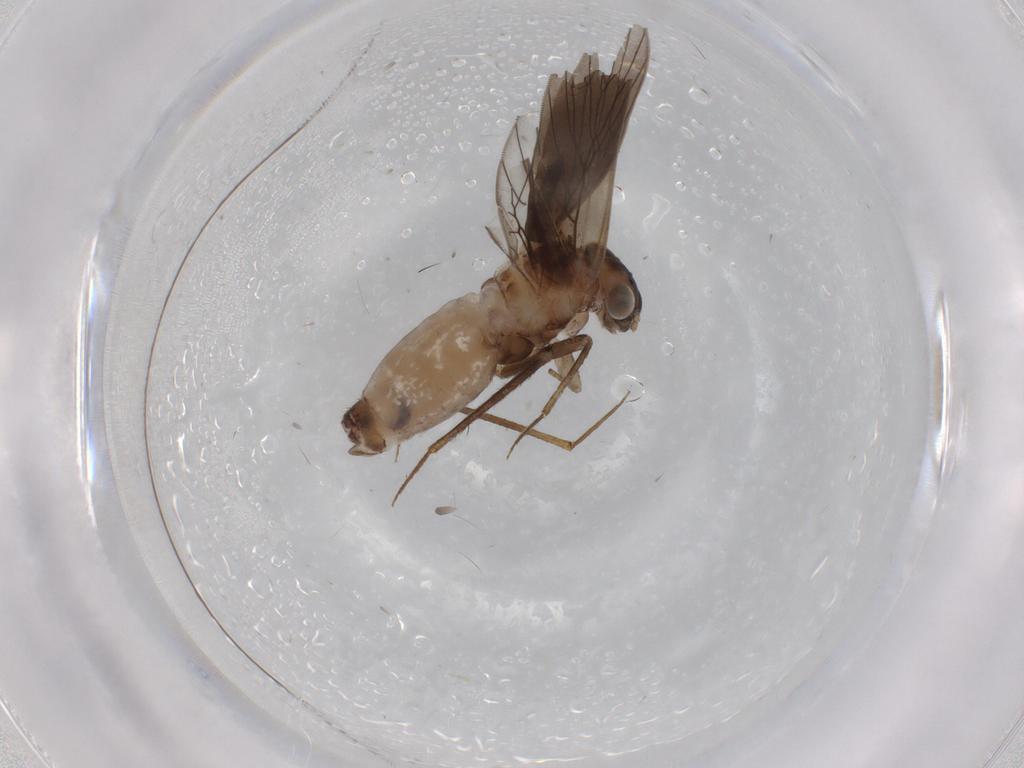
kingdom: Animalia
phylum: Arthropoda
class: Insecta
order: Psocodea
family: Lepidopsocidae
